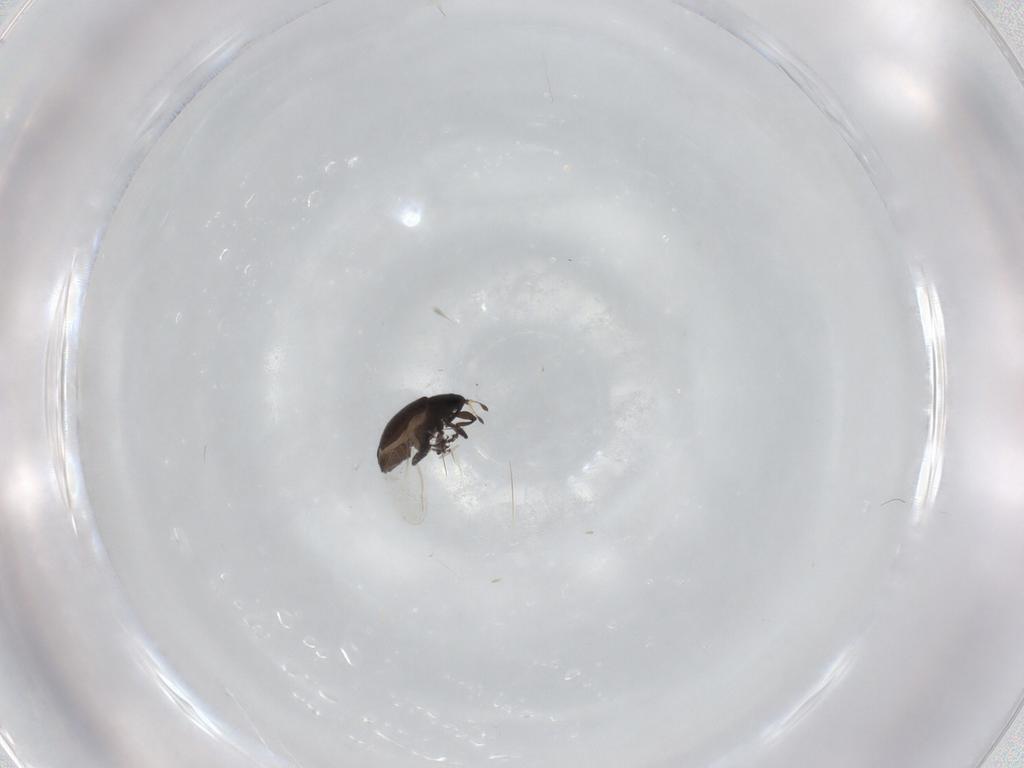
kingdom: Animalia
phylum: Arthropoda
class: Insecta
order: Coleoptera
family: Curculionidae
